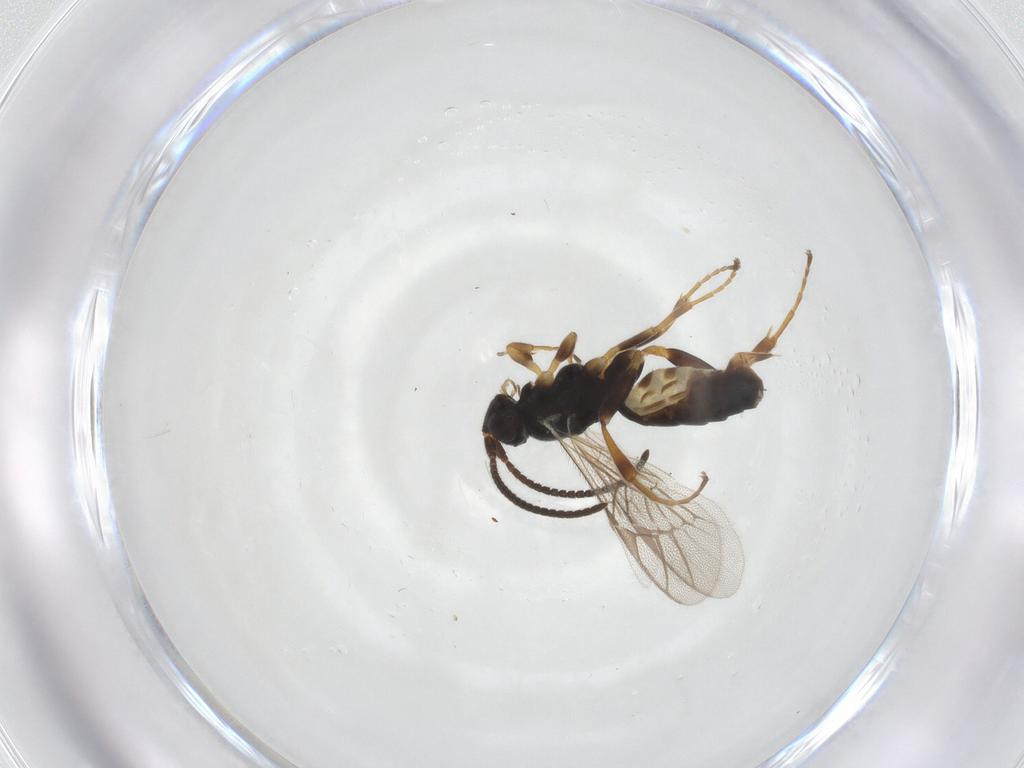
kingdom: Animalia
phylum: Arthropoda
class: Insecta
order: Hymenoptera
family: Ichneumonidae
